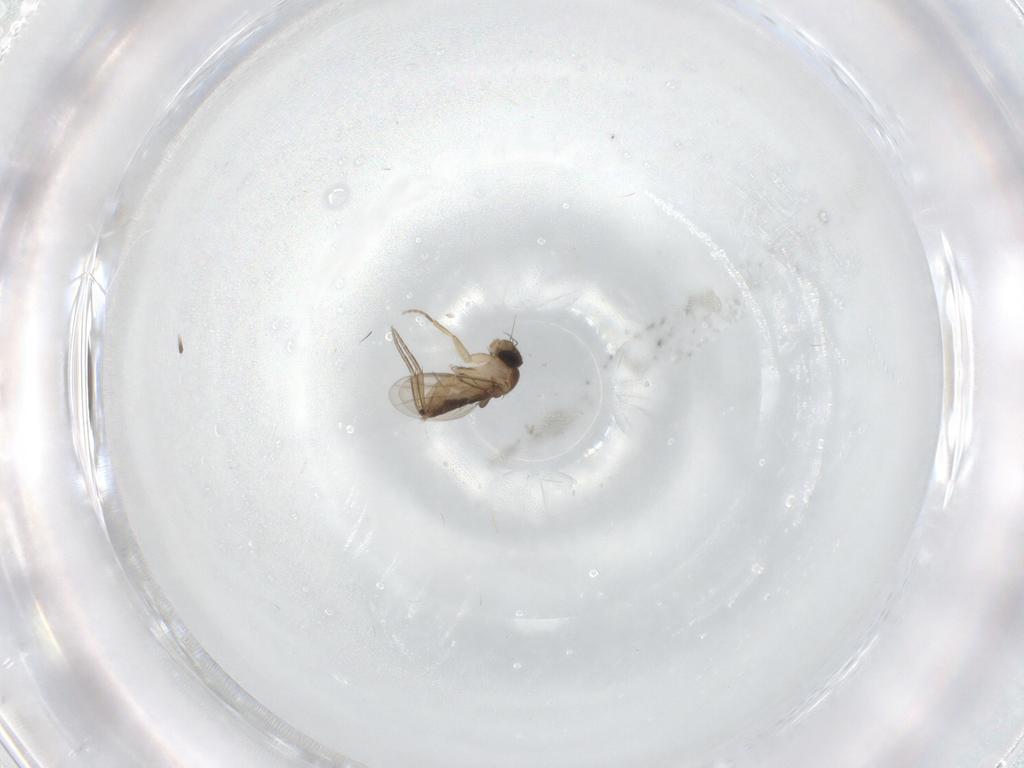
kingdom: Animalia
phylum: Arthropoda
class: Insecta
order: Diptera
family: Phoridae
